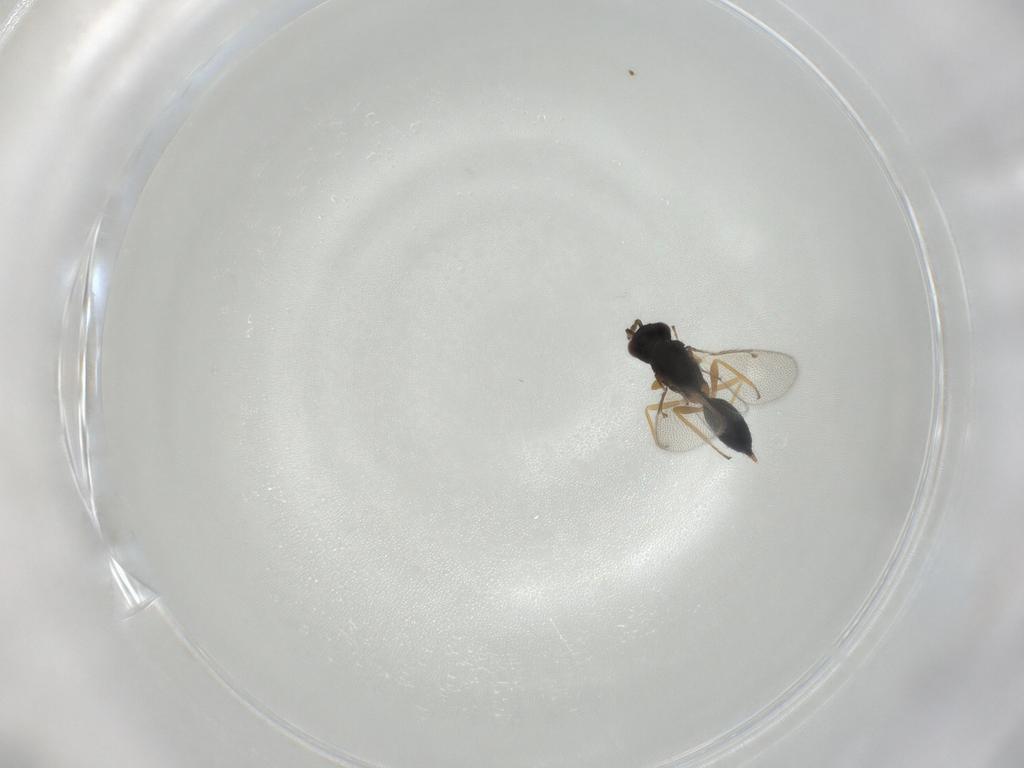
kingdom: Animalia
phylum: Arthropoda
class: Insecta
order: Hymenoptera
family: Eulophidae
